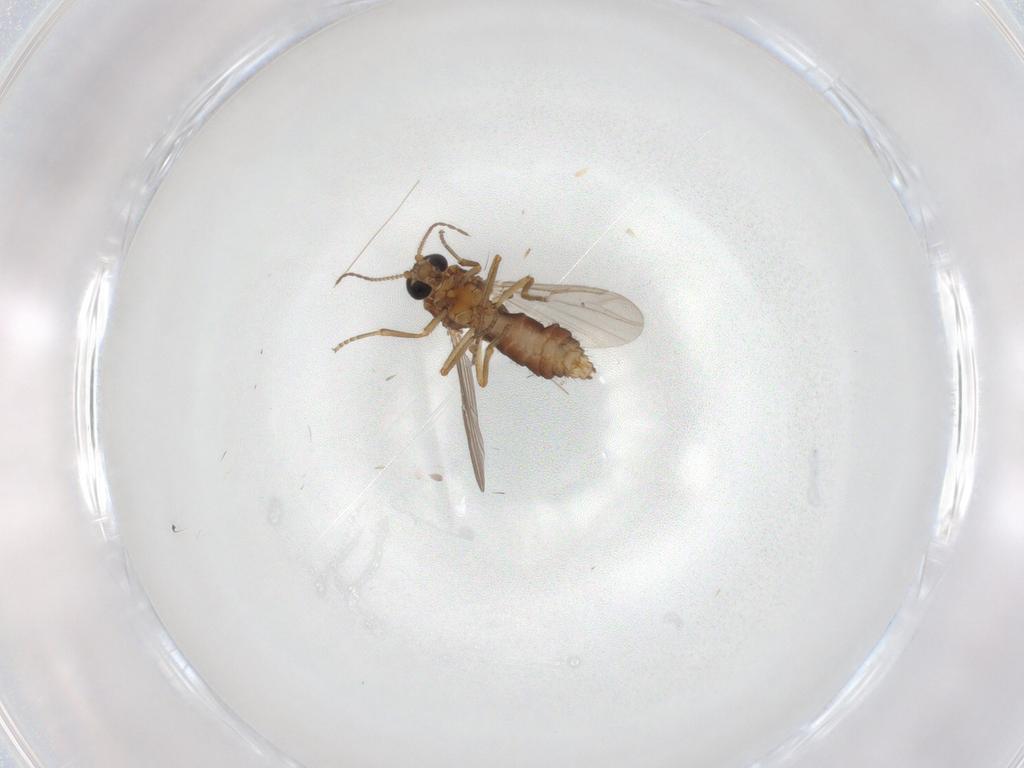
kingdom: Animalia
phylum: Arthropoda
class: Insecta
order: Diptera
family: Ceratopogonidae
